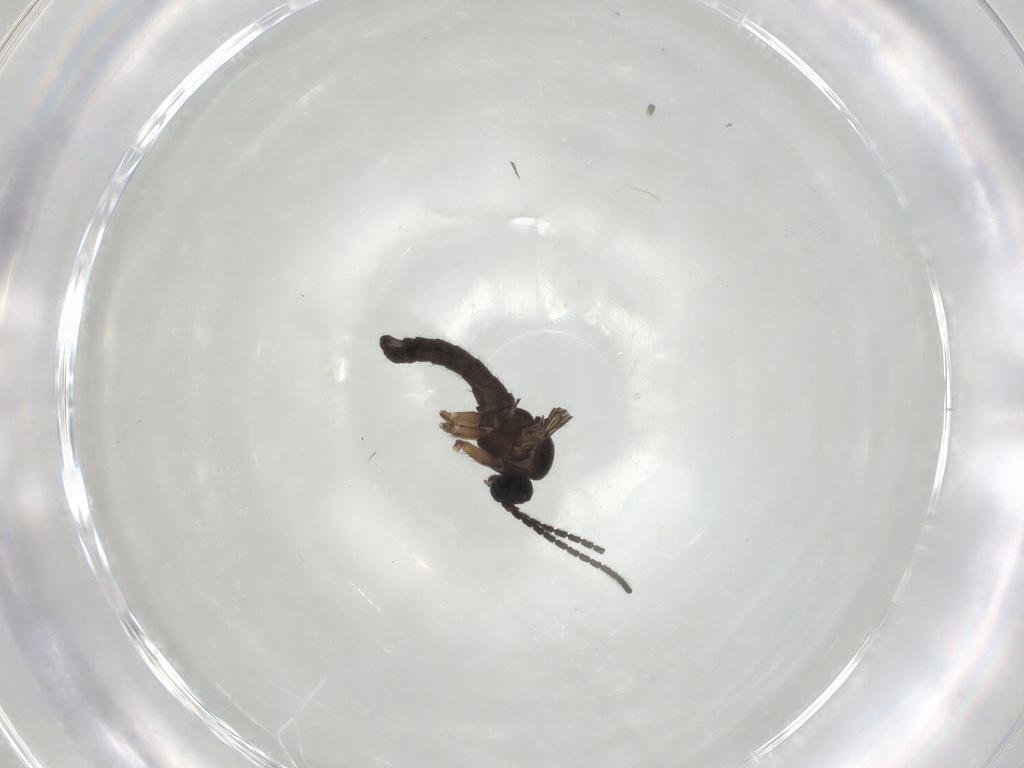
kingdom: Animalia
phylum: Arthropoda
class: Insecta
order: Diptera
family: Sciaridae
